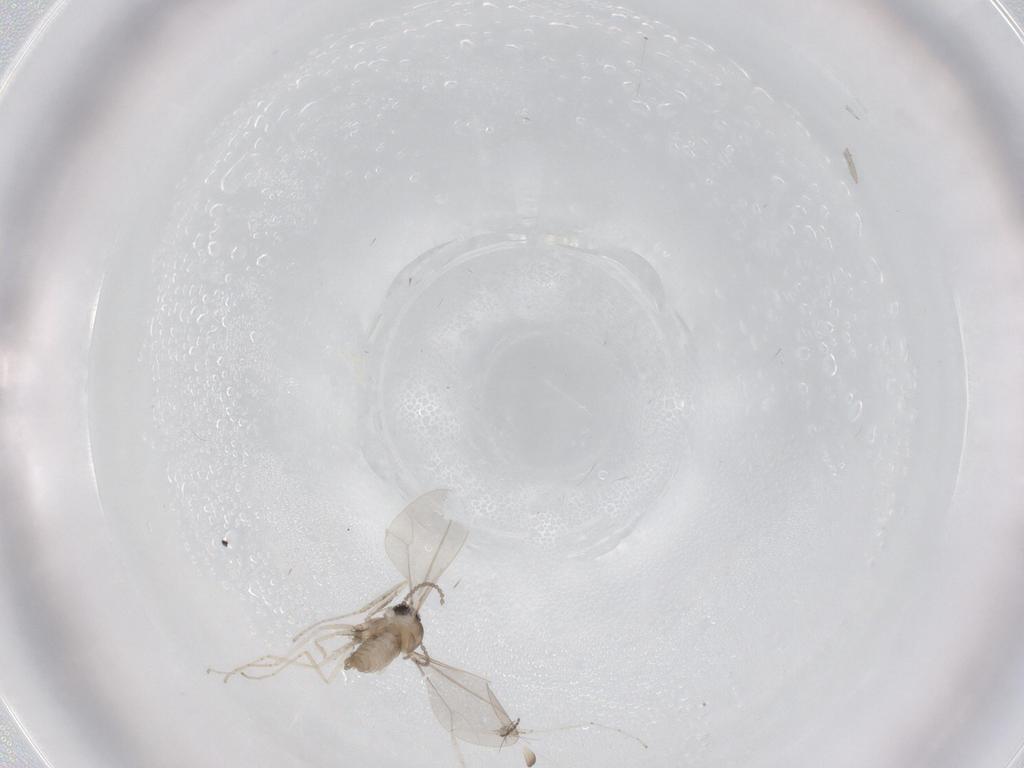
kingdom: Animalia
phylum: Arthropoda
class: Insecta
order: Diptera
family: Cecidomyiidae
